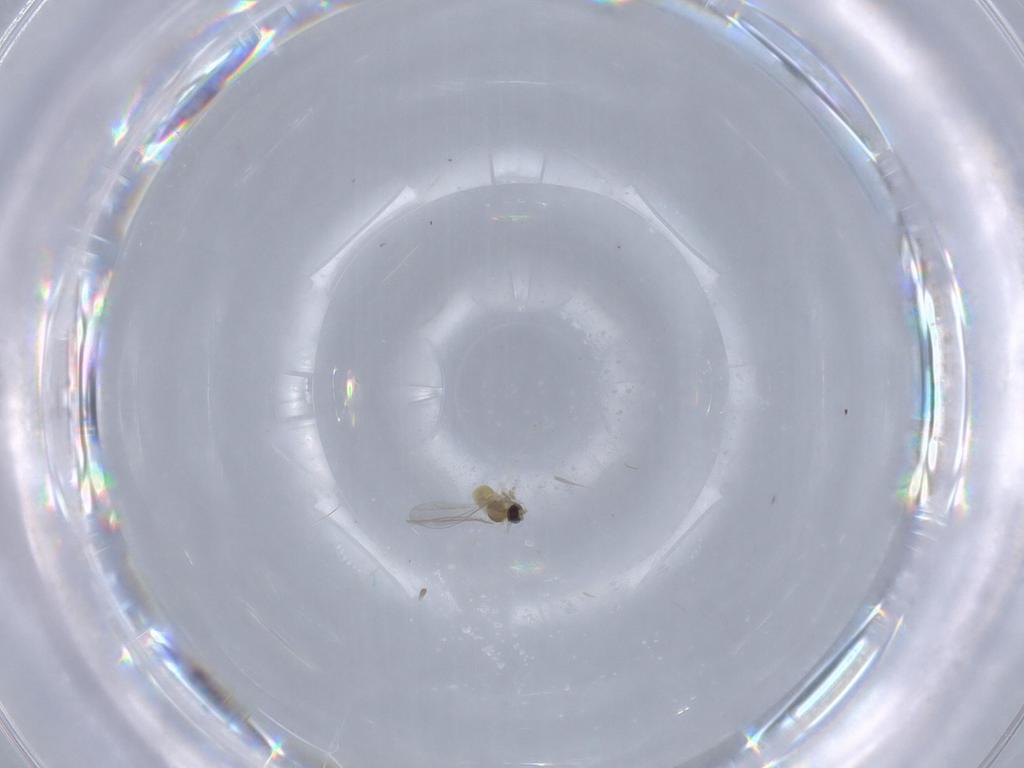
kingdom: Animalia
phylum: Arthropoda
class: Insecta
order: Diptera
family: Cecidomyiidae
